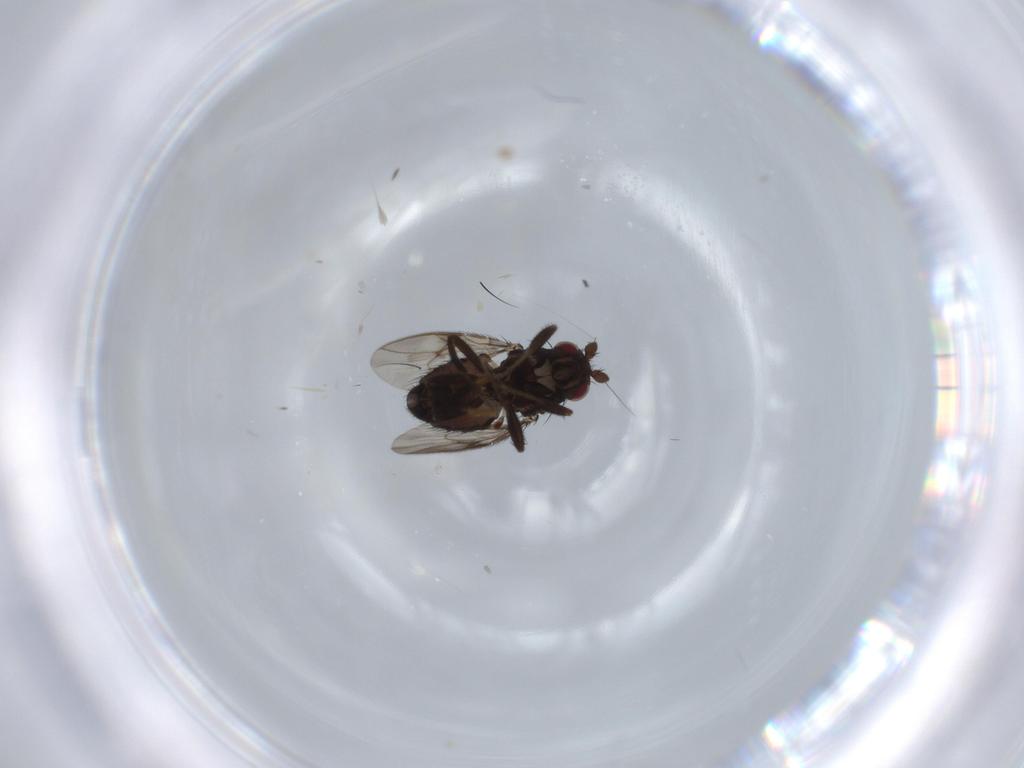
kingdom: Animalia
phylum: Arthropoda
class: Insecta
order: Diptera
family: Sphaeroceridae
